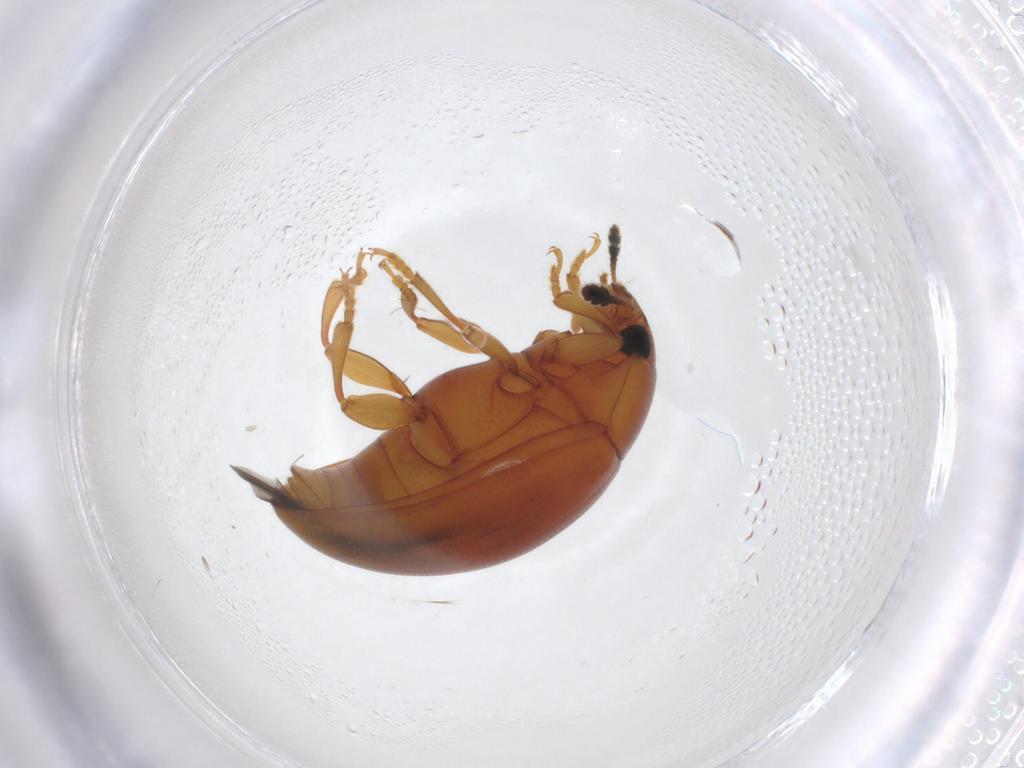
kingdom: Animalia
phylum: Arthropoda
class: Insecta
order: Coleoptera
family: Erotylidae
